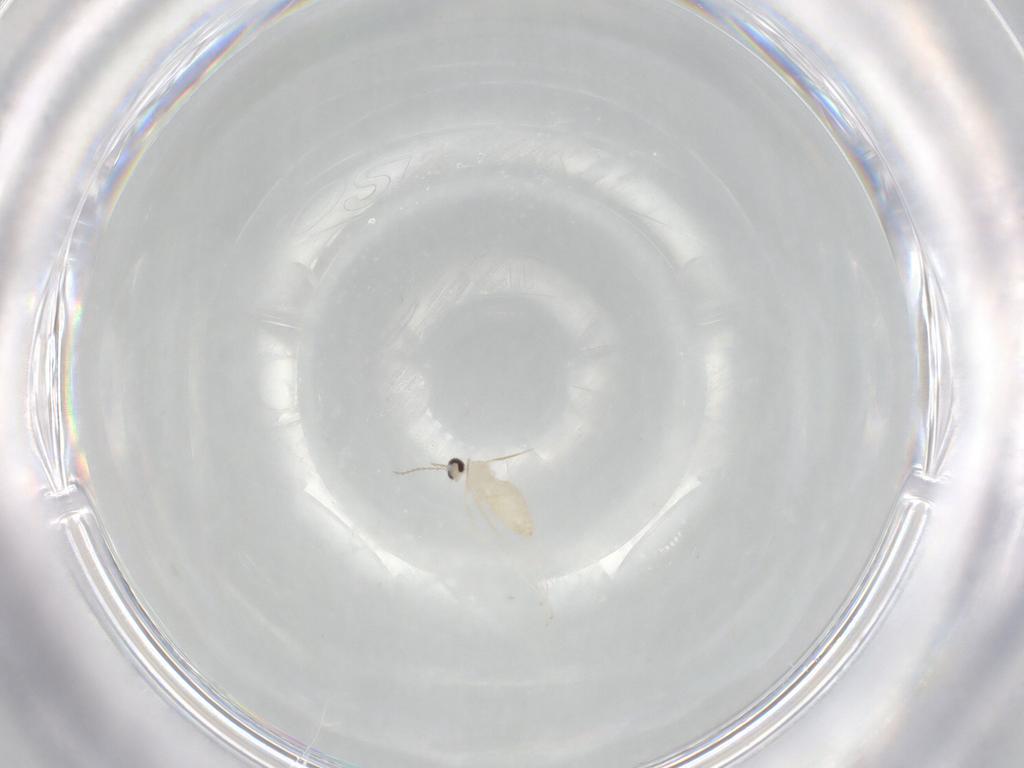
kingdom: Animalia
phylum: Arthropoda
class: Insecta
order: Diptera
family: Cecidomyiidae
